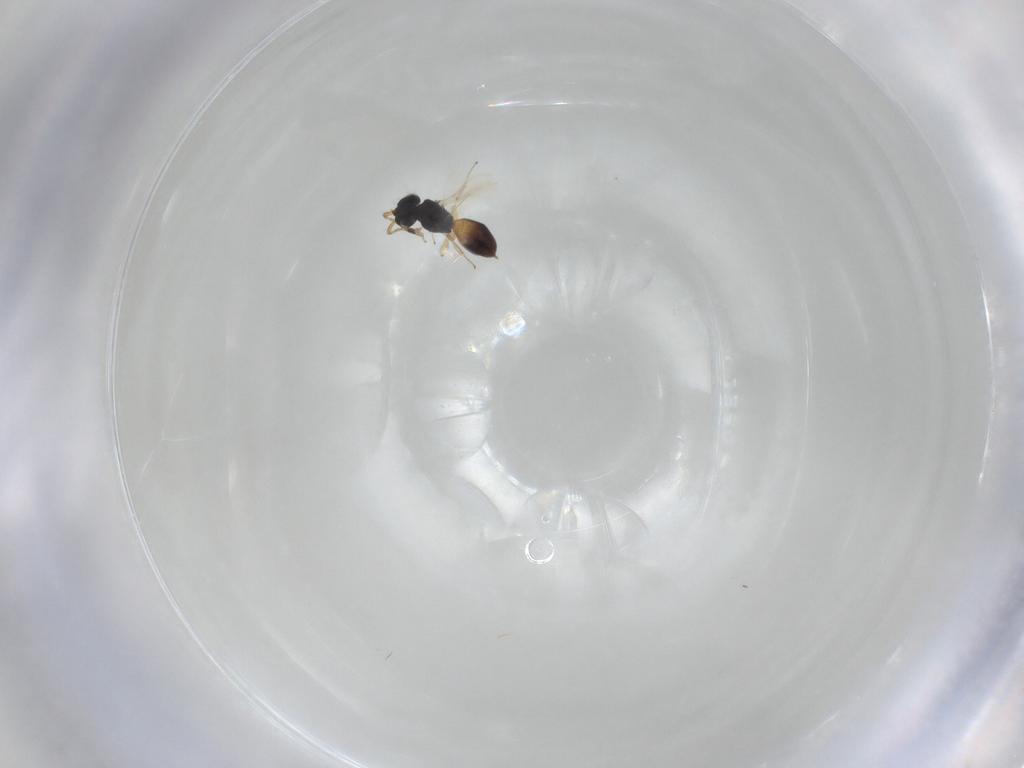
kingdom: Animalia
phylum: Arthropoda
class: Insecta
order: Hymenoptera
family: Scelionidae
